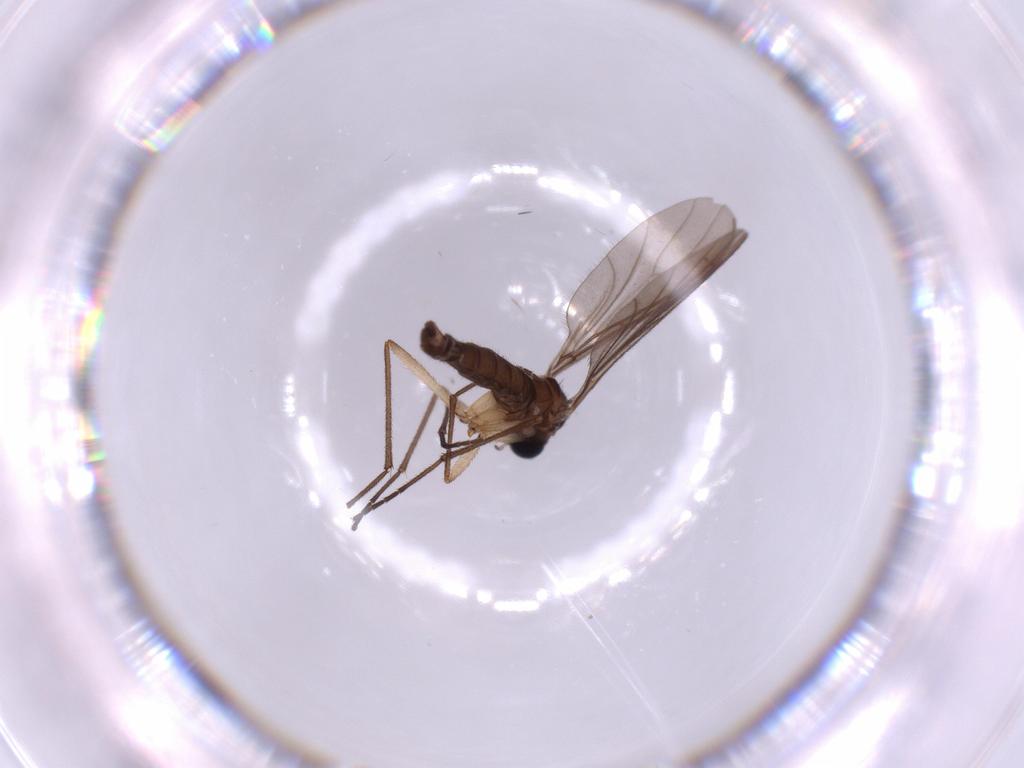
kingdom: Animalia
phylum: Arthropoda
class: Insecta
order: Diptera
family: Sciaridae
